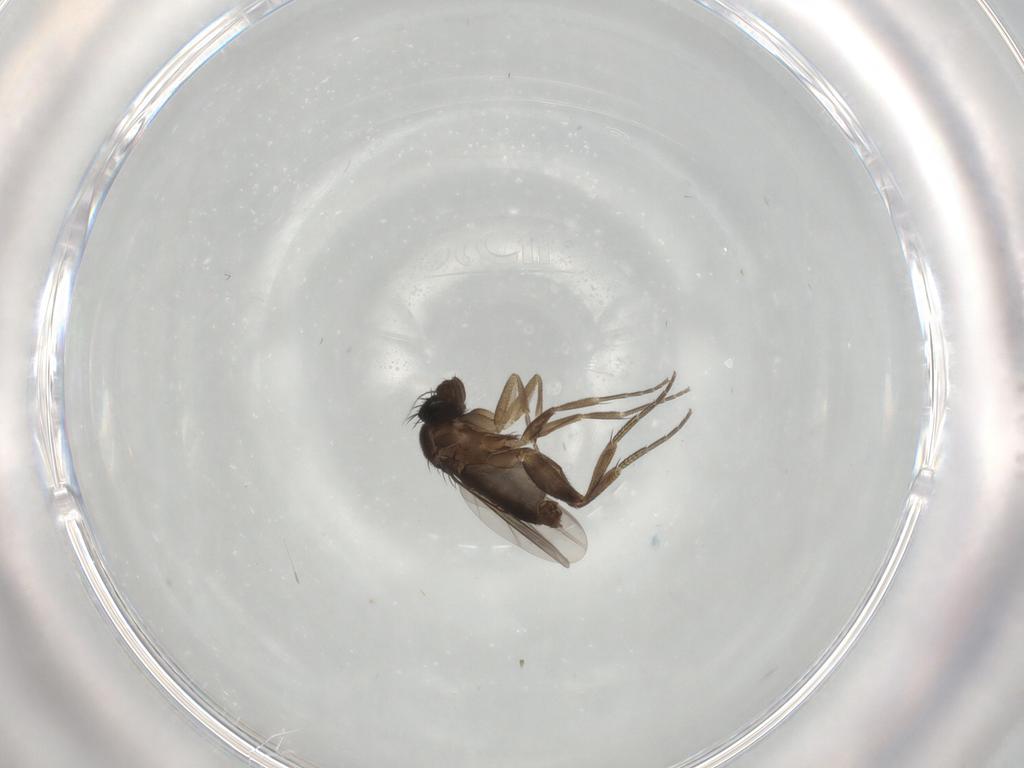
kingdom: Animalia
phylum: Arthropoda
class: Insecta
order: Diptera
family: Phoridae
